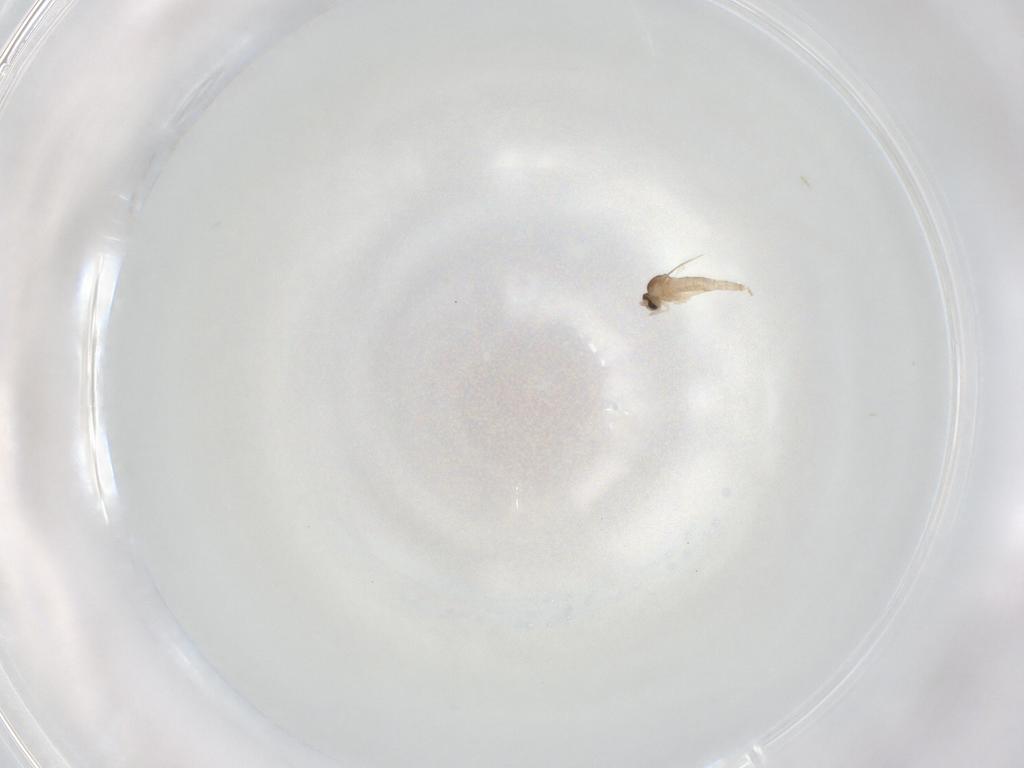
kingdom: Animalia
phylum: Arthropoda
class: Insecta
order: Diptera
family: Cecidomyiidae
